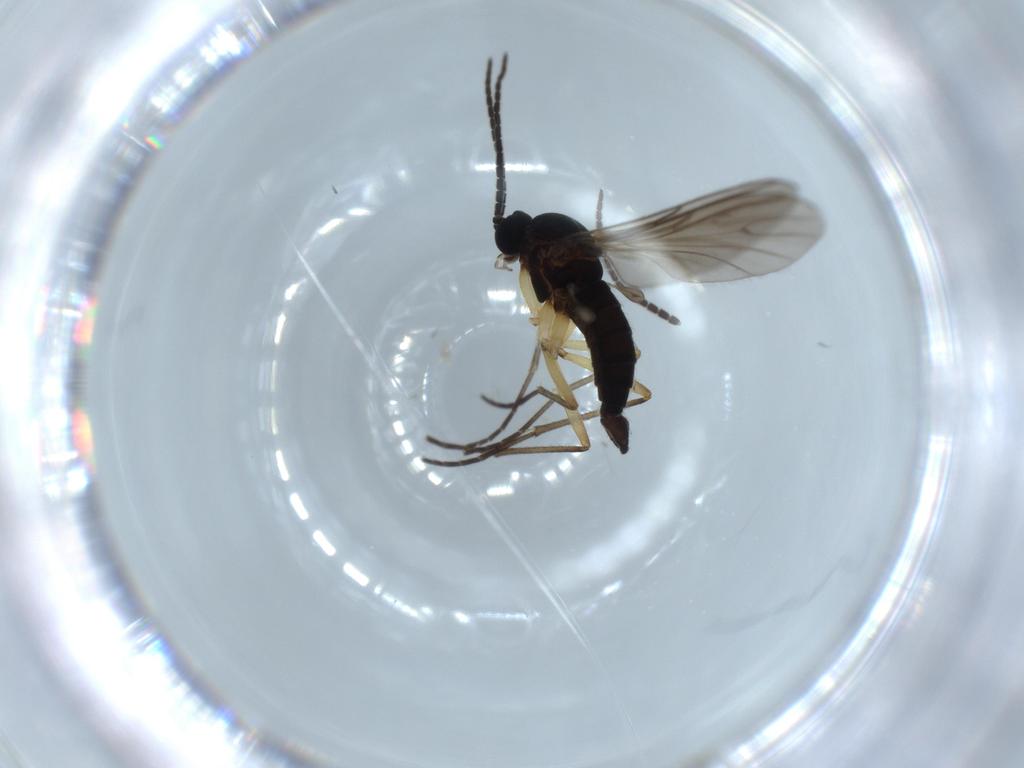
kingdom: Animalia
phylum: Arthropoda
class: Insecta
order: Diptera
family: Sciaridae
